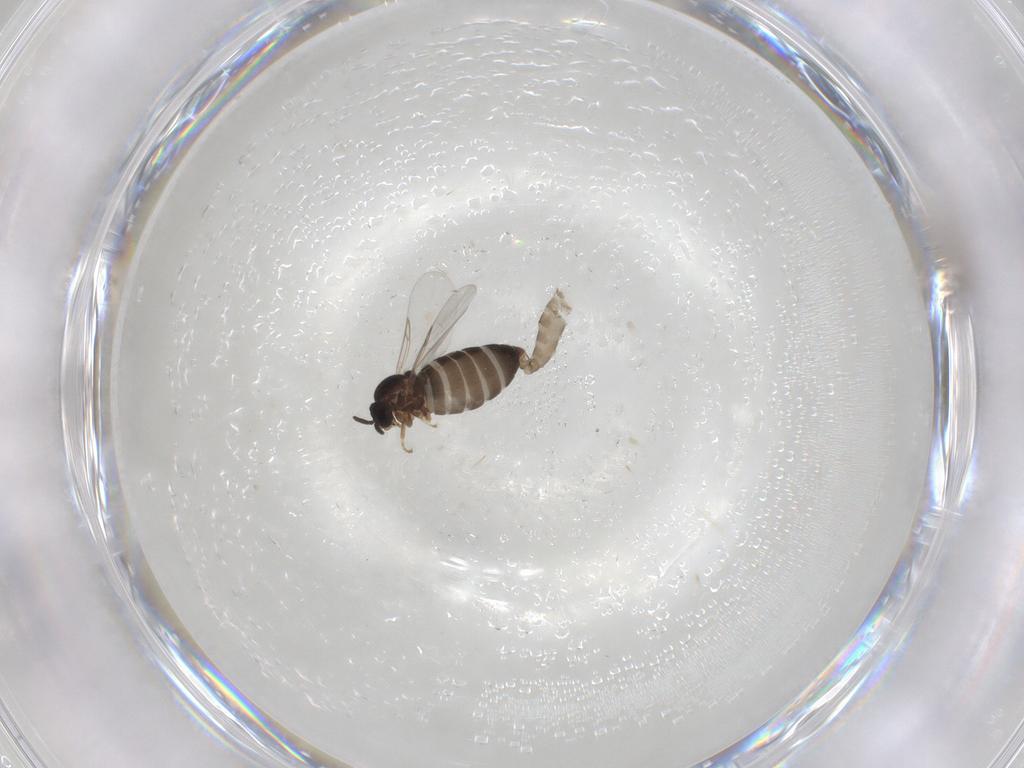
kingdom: Animalia
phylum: Arthropoda
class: Insecta
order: Diptera
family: Scatopsidae
